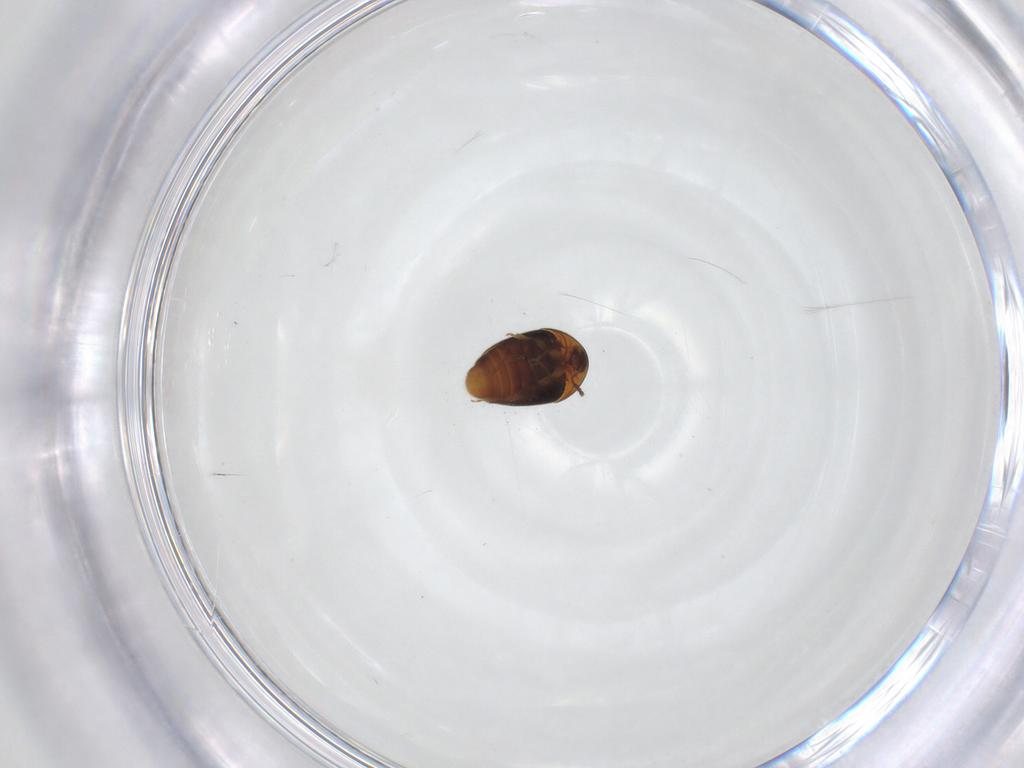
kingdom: Animalia
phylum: Arthropoda
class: Insecta
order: Coleoptera
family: Corylophidae
